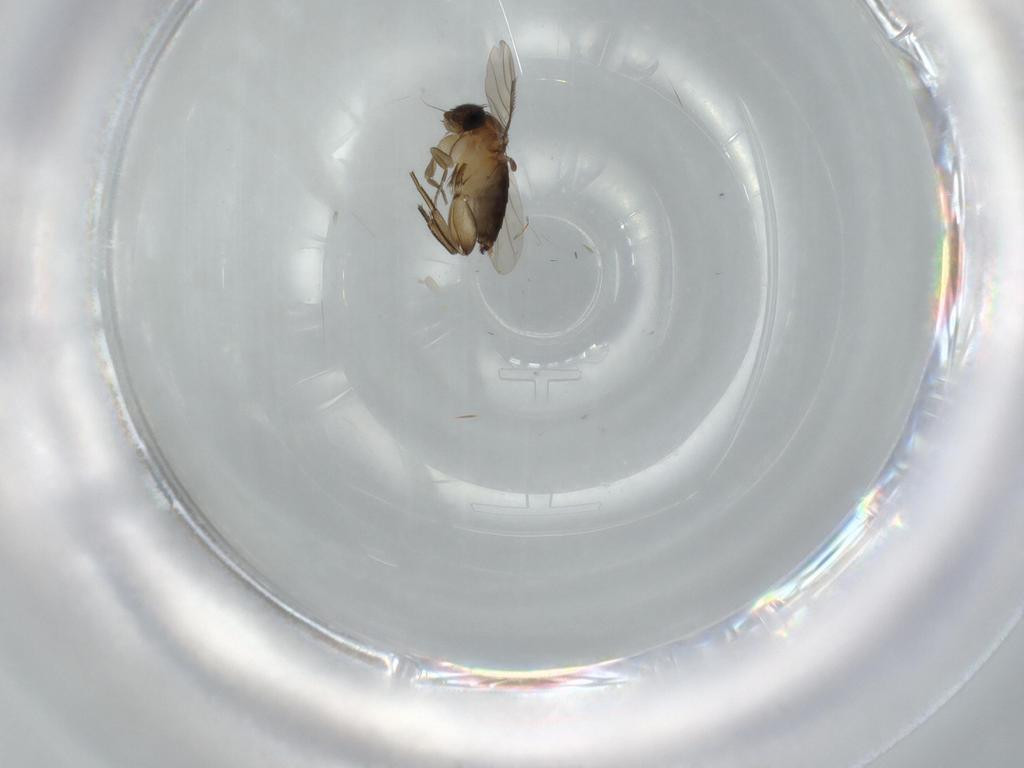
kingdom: Animalia
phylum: Arthropoda
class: Insecta
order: Diptera
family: Phoridae
